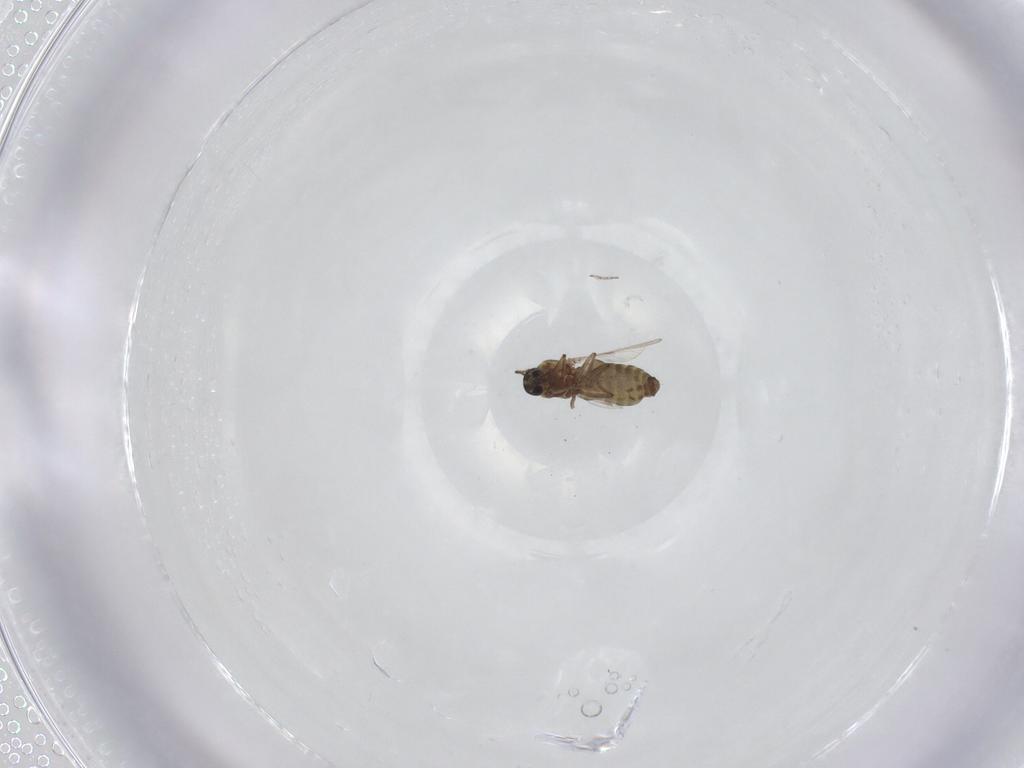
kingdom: Animalia
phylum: Arthropoda
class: Insecta
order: Diptera
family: Ceratopogonidae
